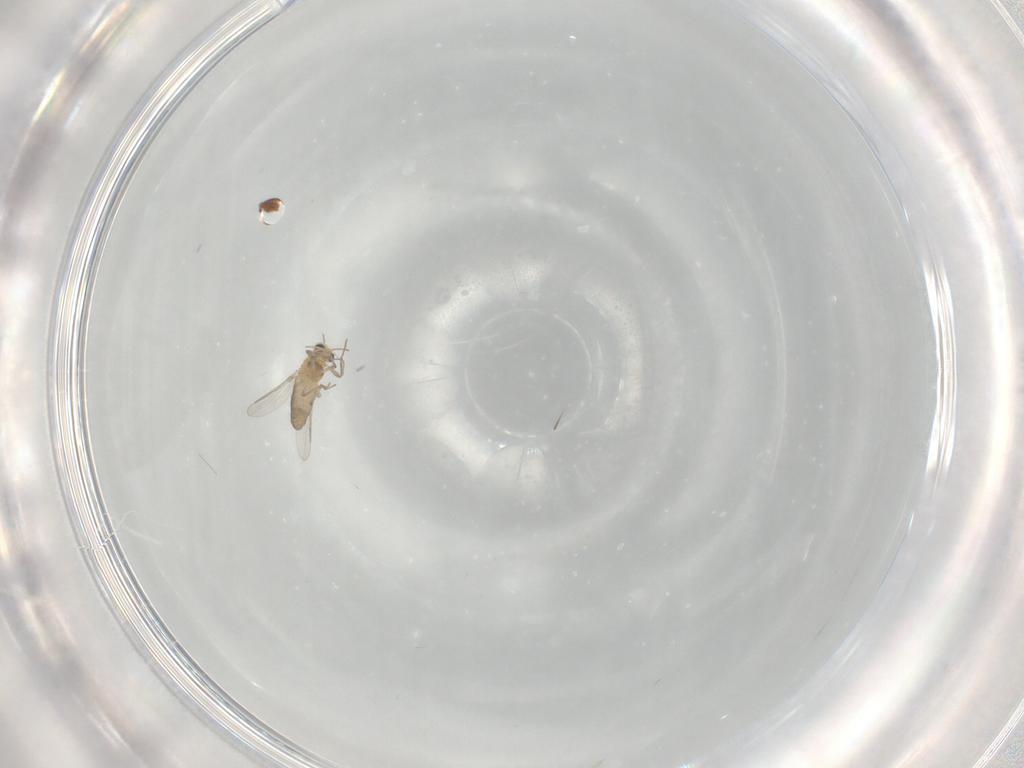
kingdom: Animalia
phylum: Arthropoda
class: Insecta
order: Diptera
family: Chironomidae
